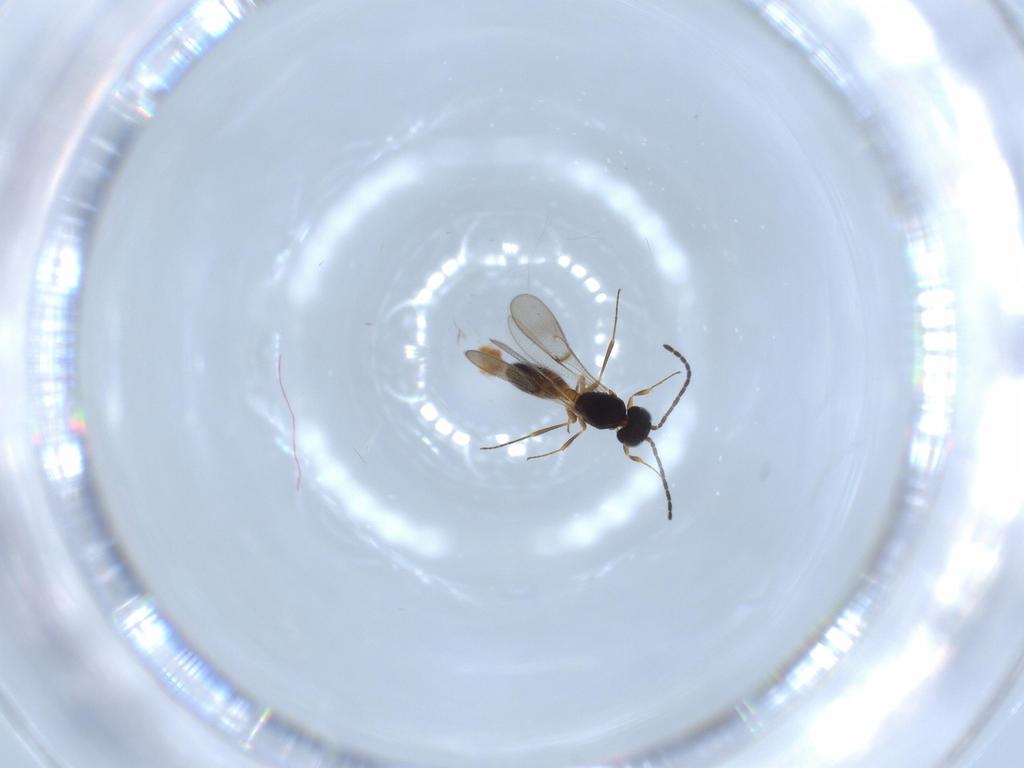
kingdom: Animalia
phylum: Arthropoda
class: Insecta
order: Hymenoptera
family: Scelionidae
